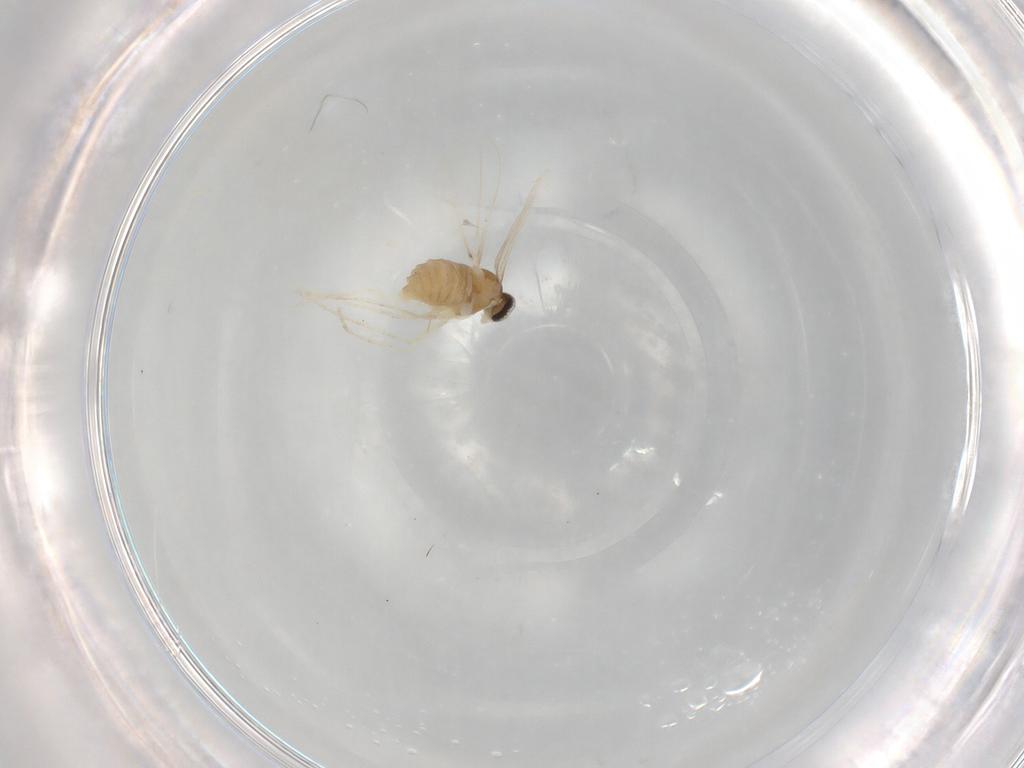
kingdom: Animalia
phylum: Arthropoda
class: Insecta
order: Diptera
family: Cecidomyiidae
